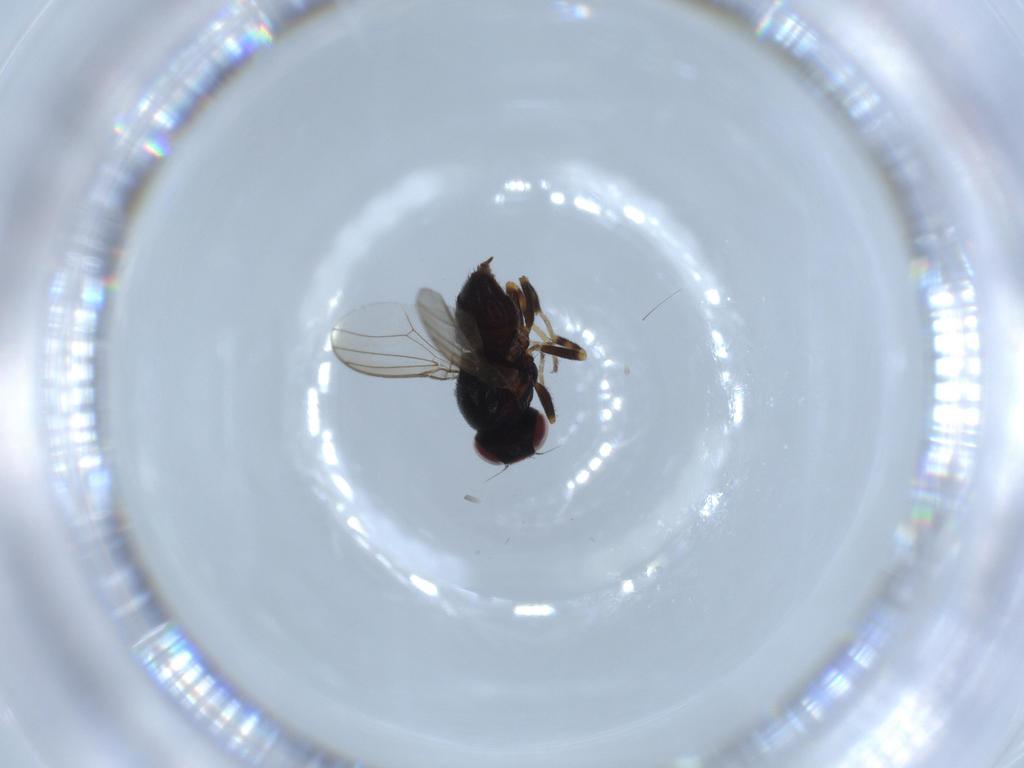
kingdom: Animalia
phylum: Arthropoda
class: Insecta
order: Diptera
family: Chloropidae
